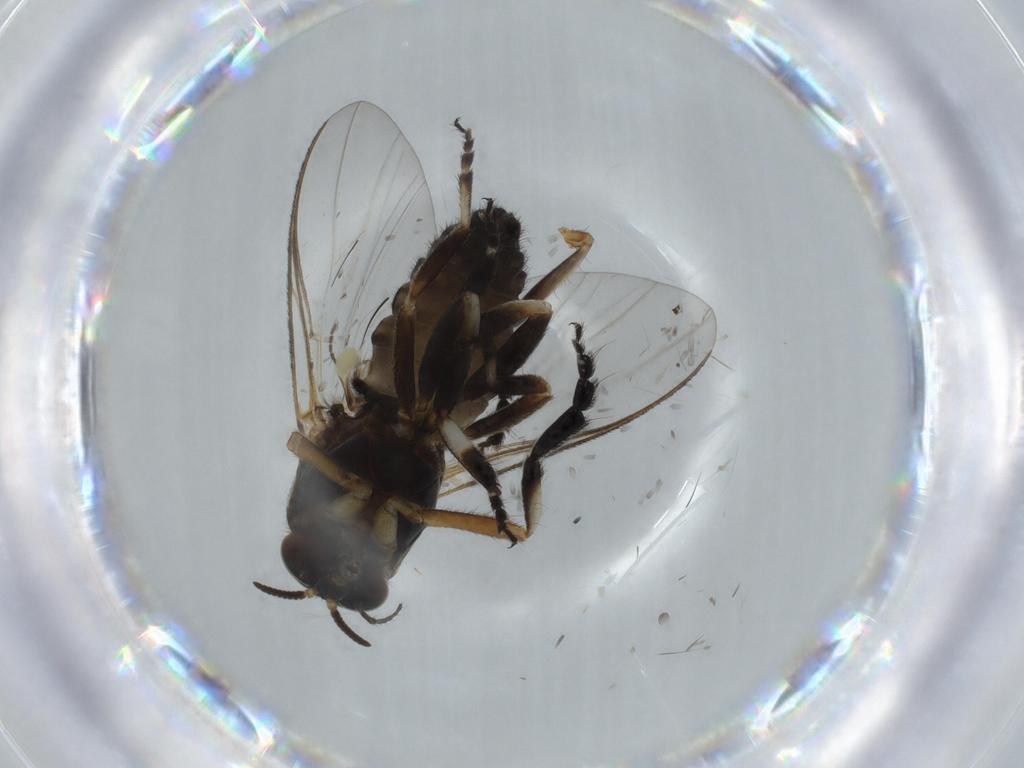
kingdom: Animalia
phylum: Arthropoda
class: Insecta
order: Diptera
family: Sciaridae
